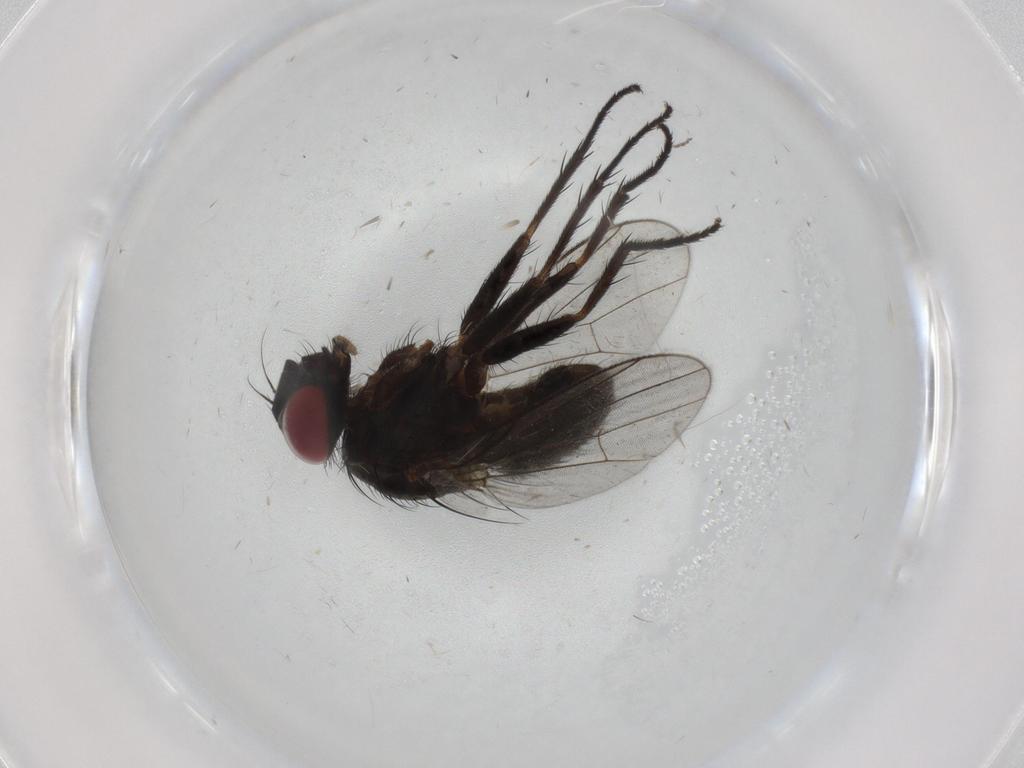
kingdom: Animalia
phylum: Arthropoda
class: Insecta
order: Diptera
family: Muscidae
